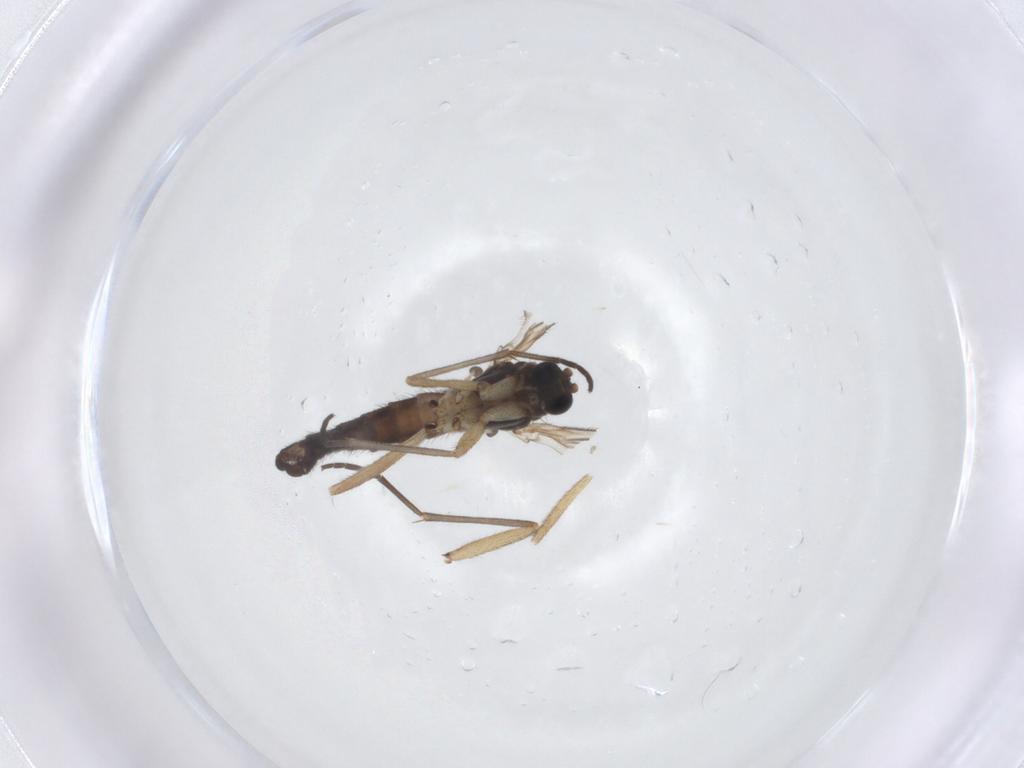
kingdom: Animalia
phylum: Arthropoda
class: Insecta
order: Diptera
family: Sciaridae
